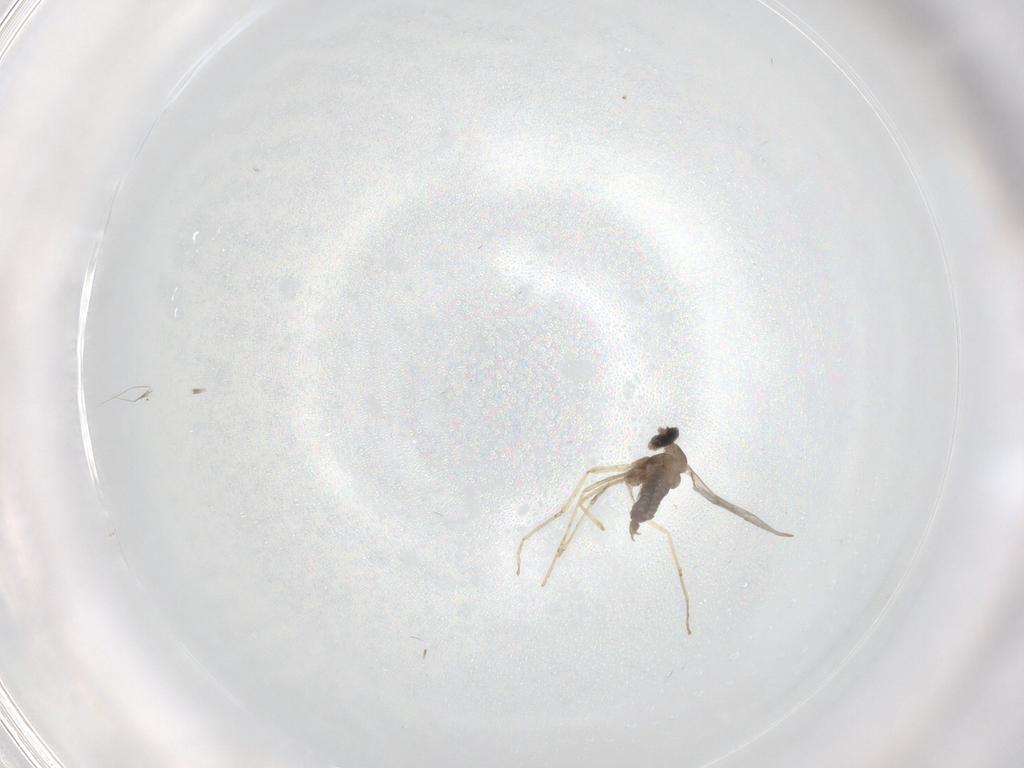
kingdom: Animalia
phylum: Arthropoda
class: Insecta
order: Diptera
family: Cecidomyiidae
